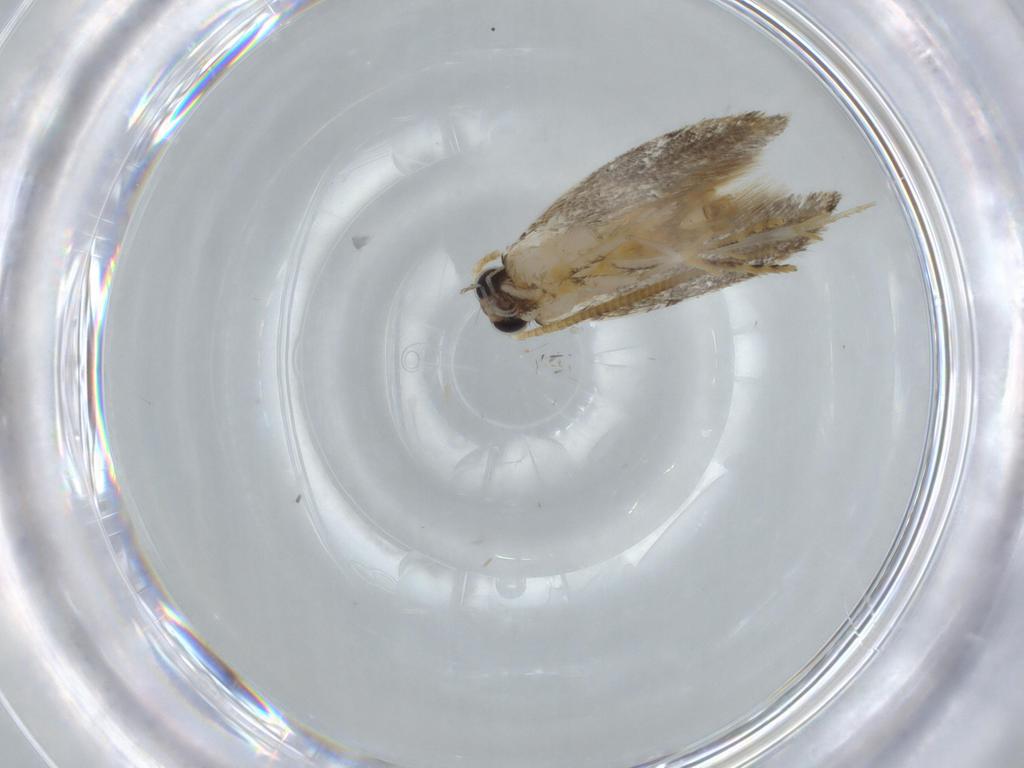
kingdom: Animalia
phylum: Arthropoda
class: Insecta
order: Lepidoptera
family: Tineidae
